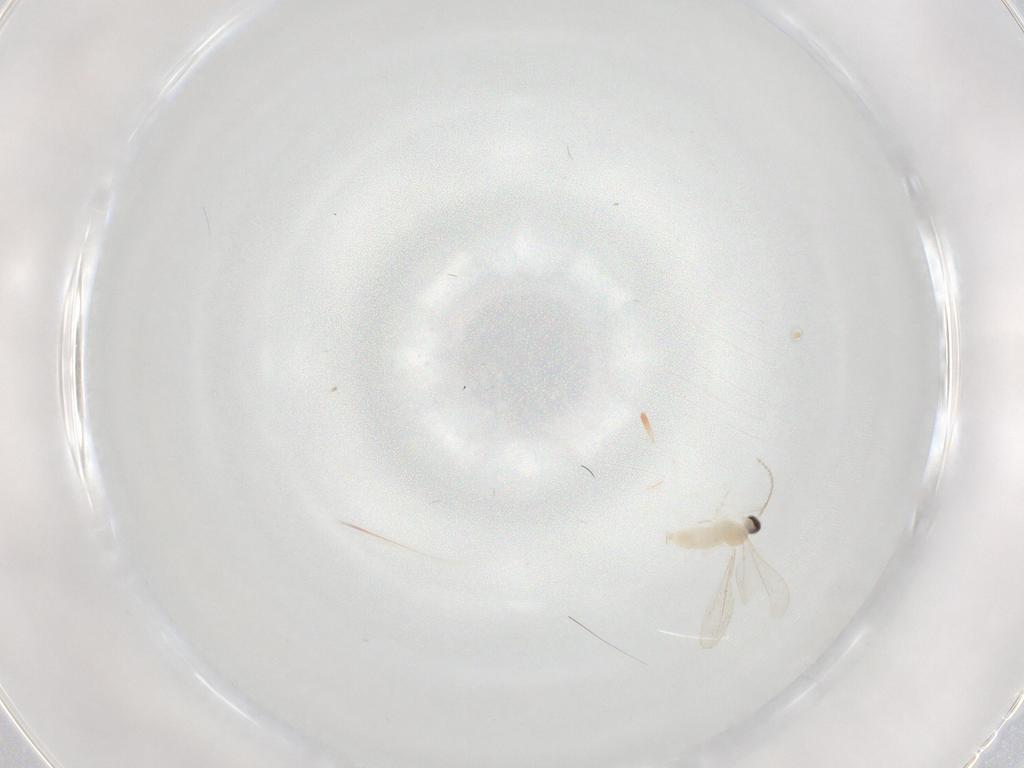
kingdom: Animalia
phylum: Arthropoda
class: Insecta
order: Diptera
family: Cecidomyiidae
